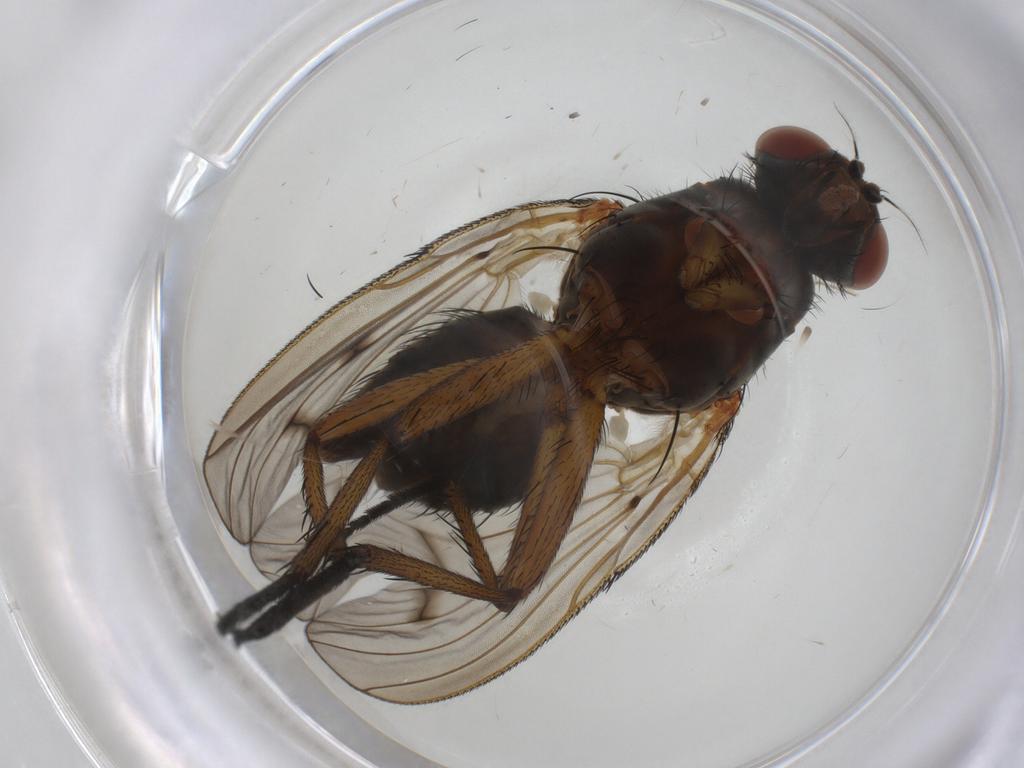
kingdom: Animalia
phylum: Arthropoda
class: Insecta
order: Diptera
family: Anthomyiidae
